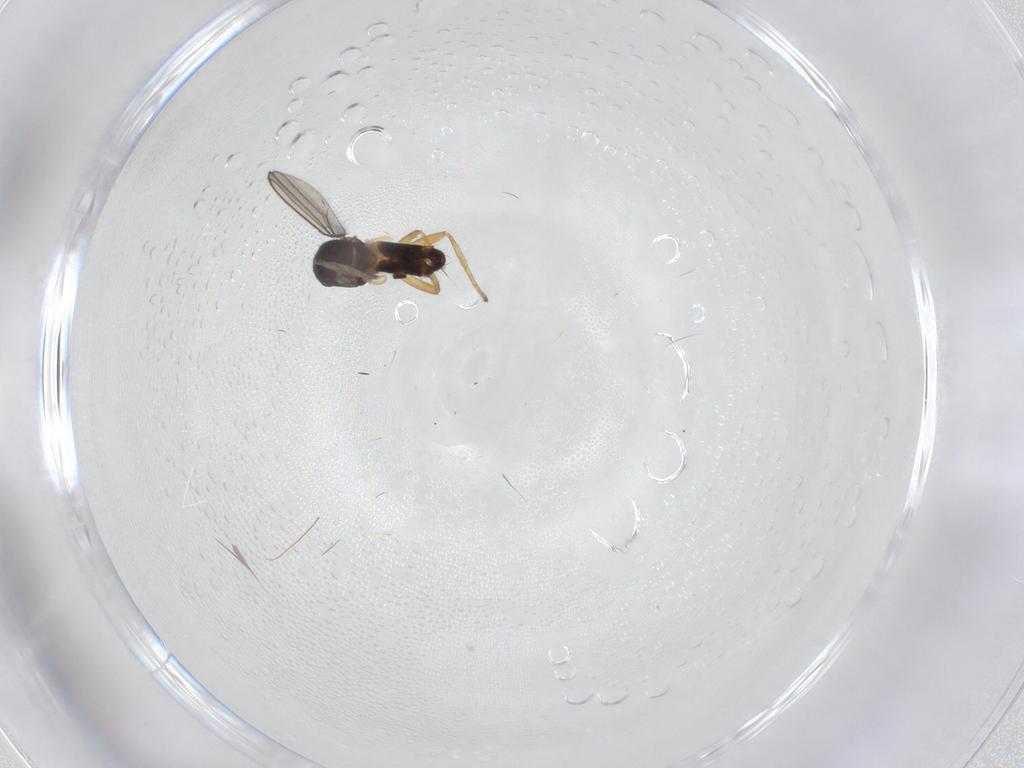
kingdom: Animalia
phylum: Arthropoda
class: Insecta
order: Diptera
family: Anthomyzidae
